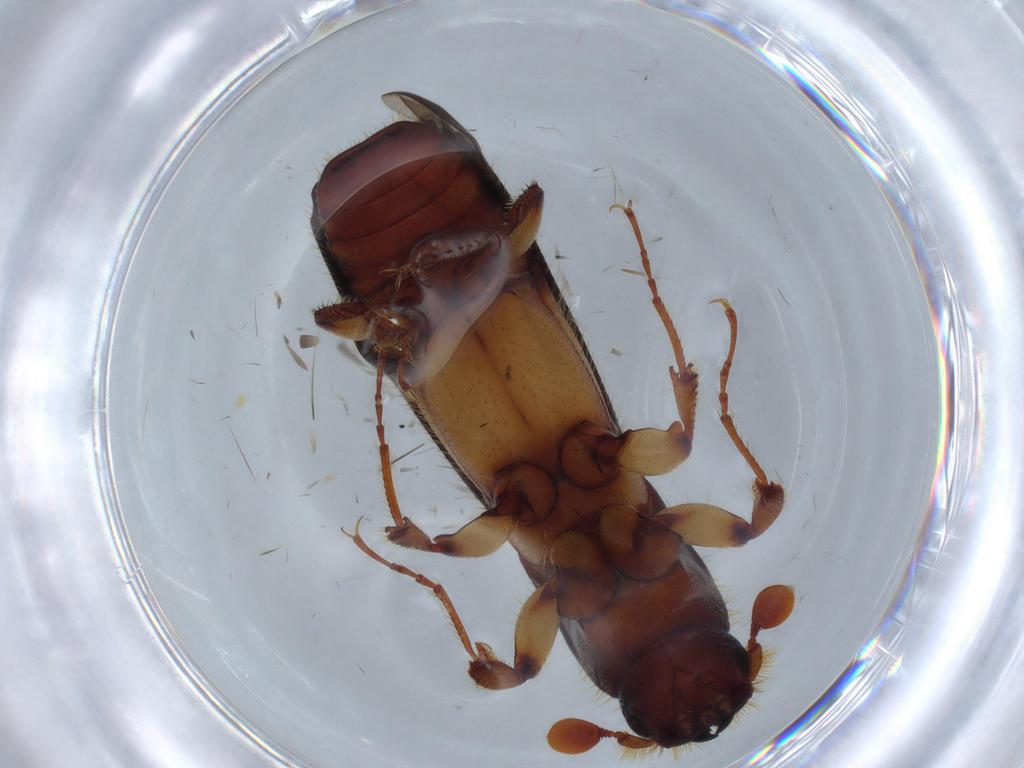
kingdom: Animalia
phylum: Arthropoda
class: Insecta
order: Coleoptera
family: Curculionidae
